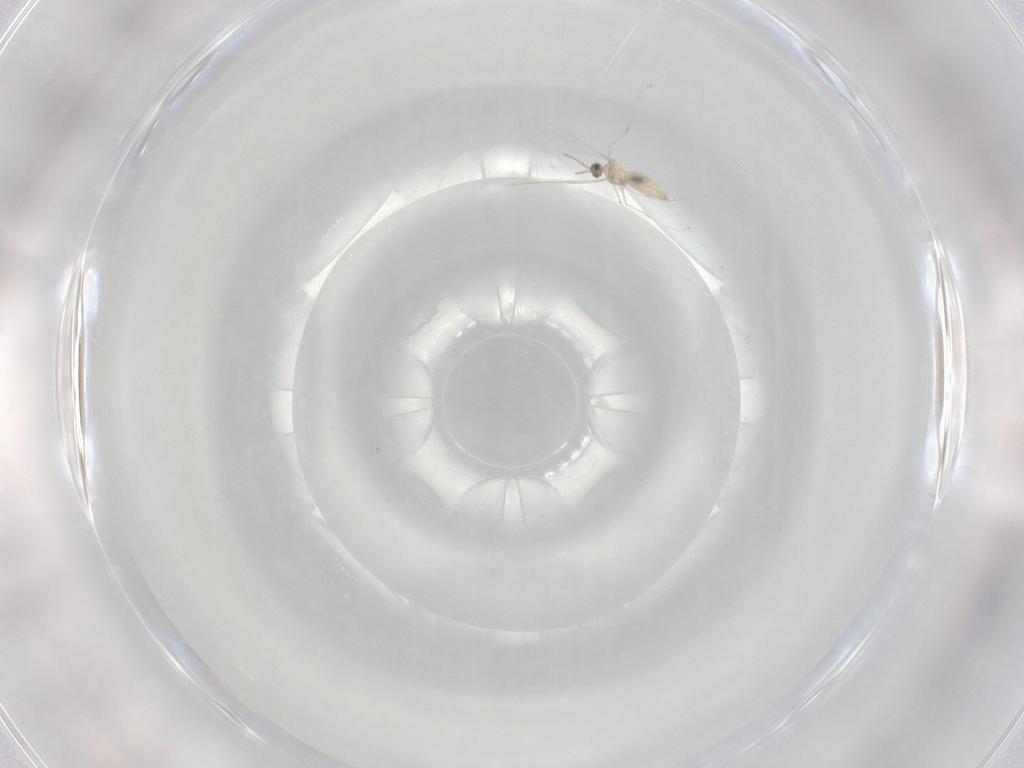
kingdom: Animalia
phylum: Arthropoda
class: Insecta
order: Diptera
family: Cecidomyiidae
